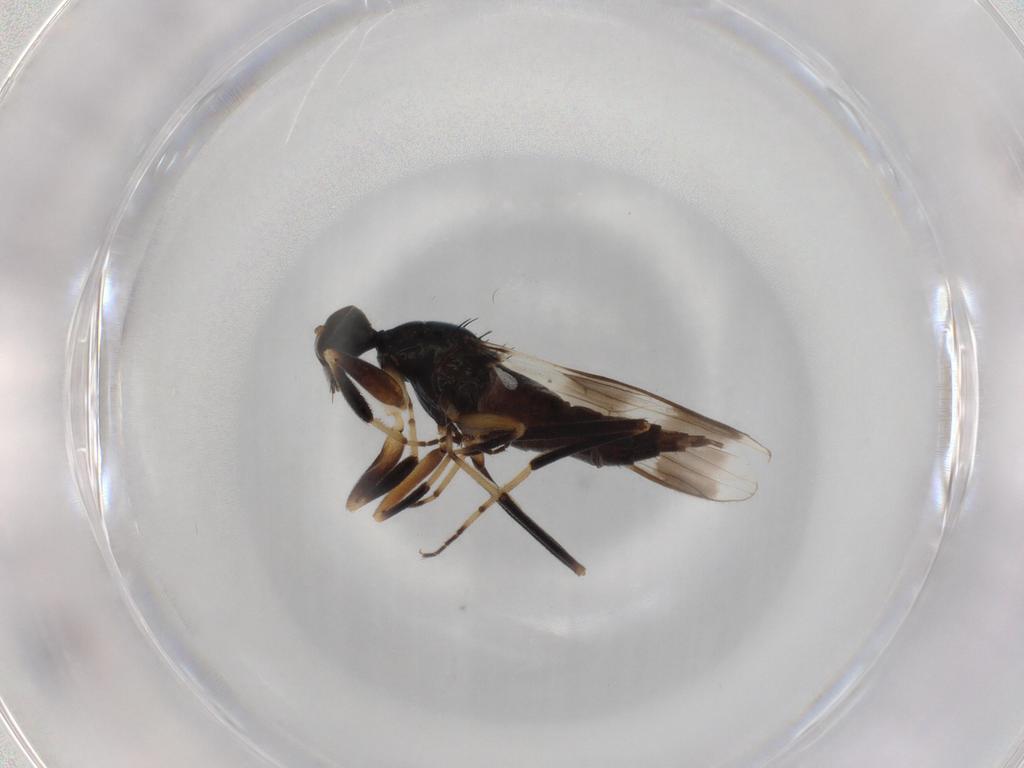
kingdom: Animalia
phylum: Arthropoda
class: Insecta
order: Diptera
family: Hybotidae
